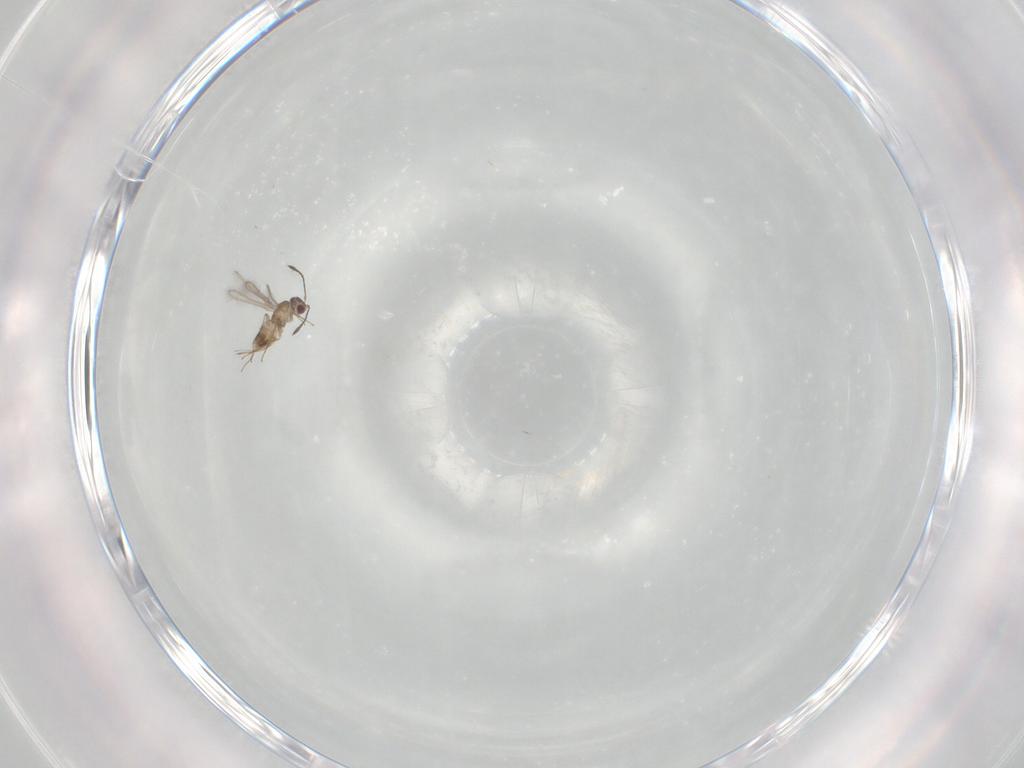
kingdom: Animalia
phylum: Arthropoda
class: Insecta
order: Hymenoptera
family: Mymaridae
